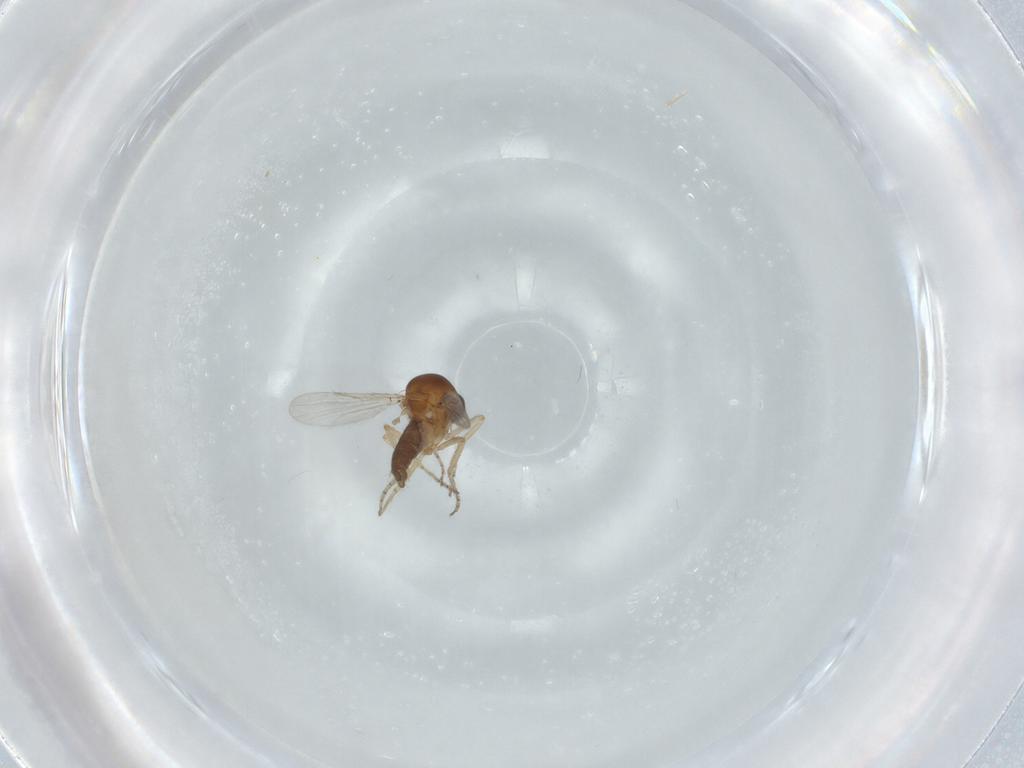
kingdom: Animalia
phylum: Arthropoda
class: Insecta
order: Diptera
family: Ceratopogonidae
